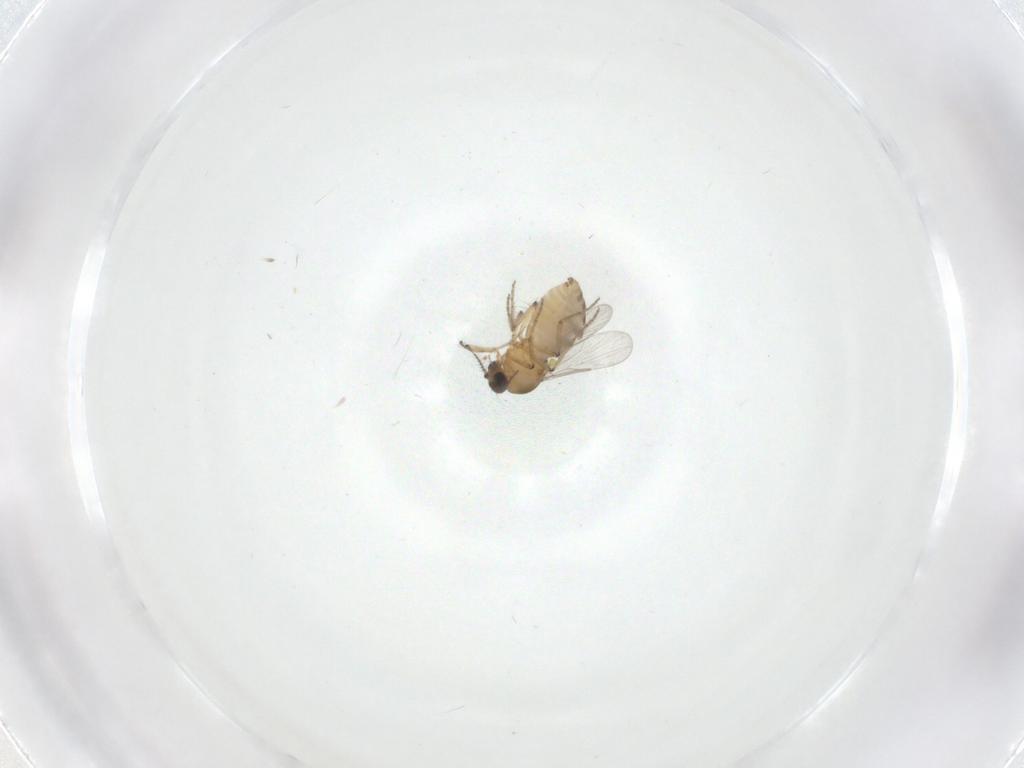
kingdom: Animalia
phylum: Arthropoda
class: Insecta
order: Diptera
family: Ceratopogonidae
